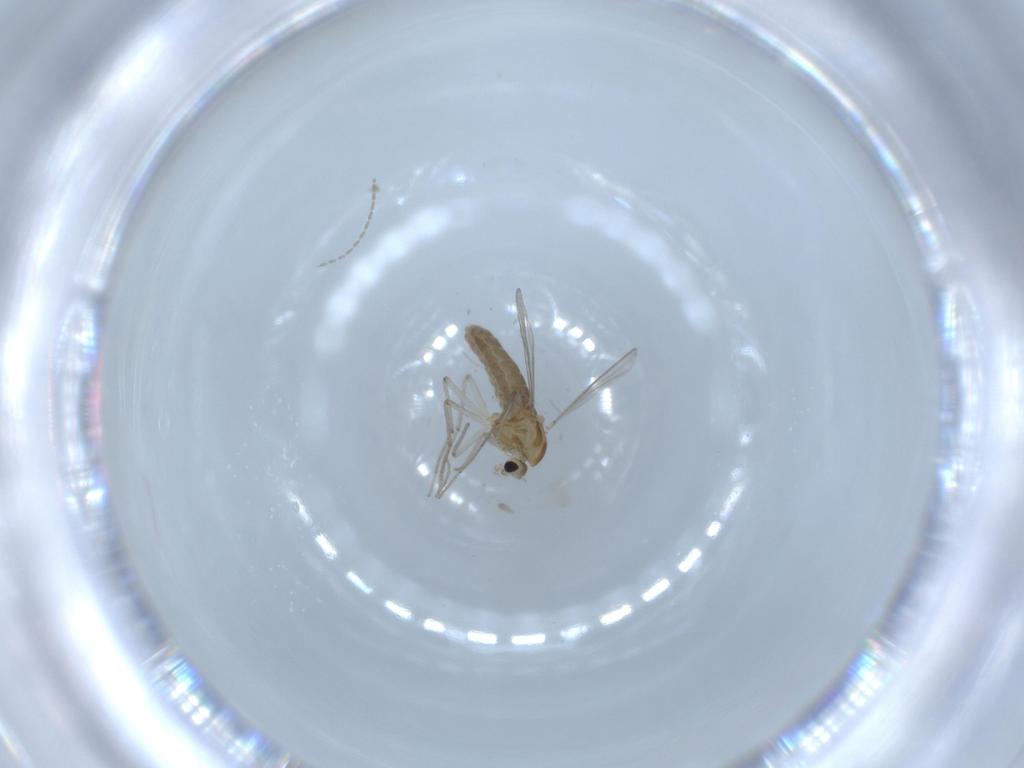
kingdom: Animalia
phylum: Arthropoda
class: Insecta
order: Diptera
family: Chironomidae
